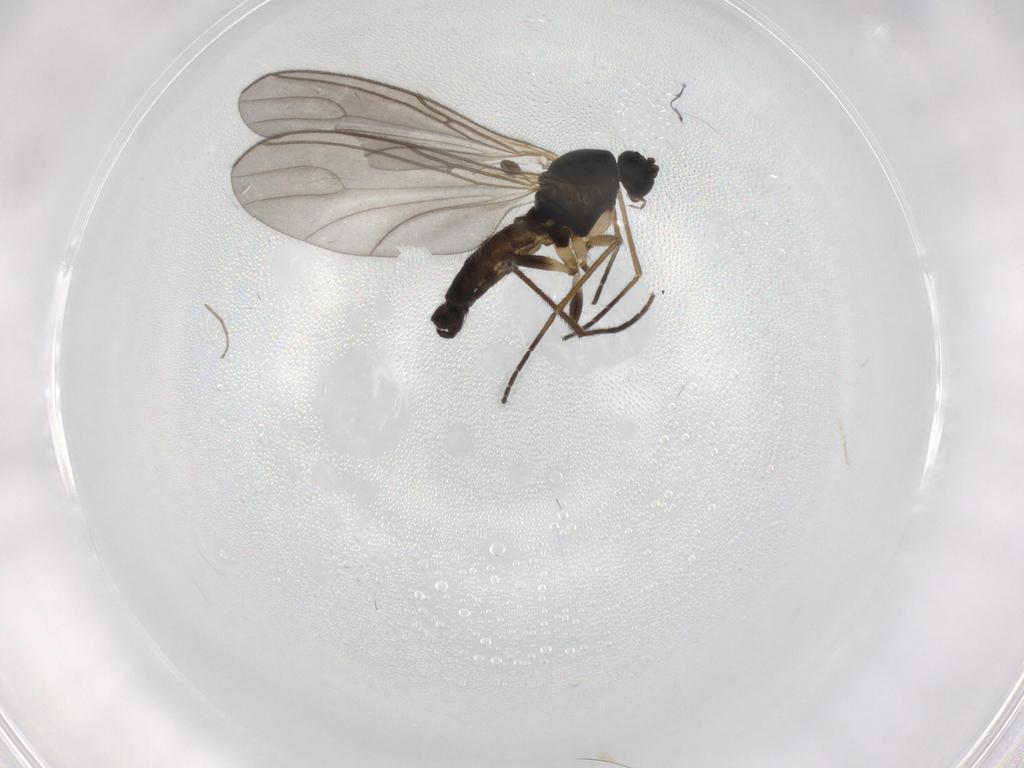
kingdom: Animalia
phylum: Arthropoda
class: Insecta
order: Diptera
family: Sciaridae
